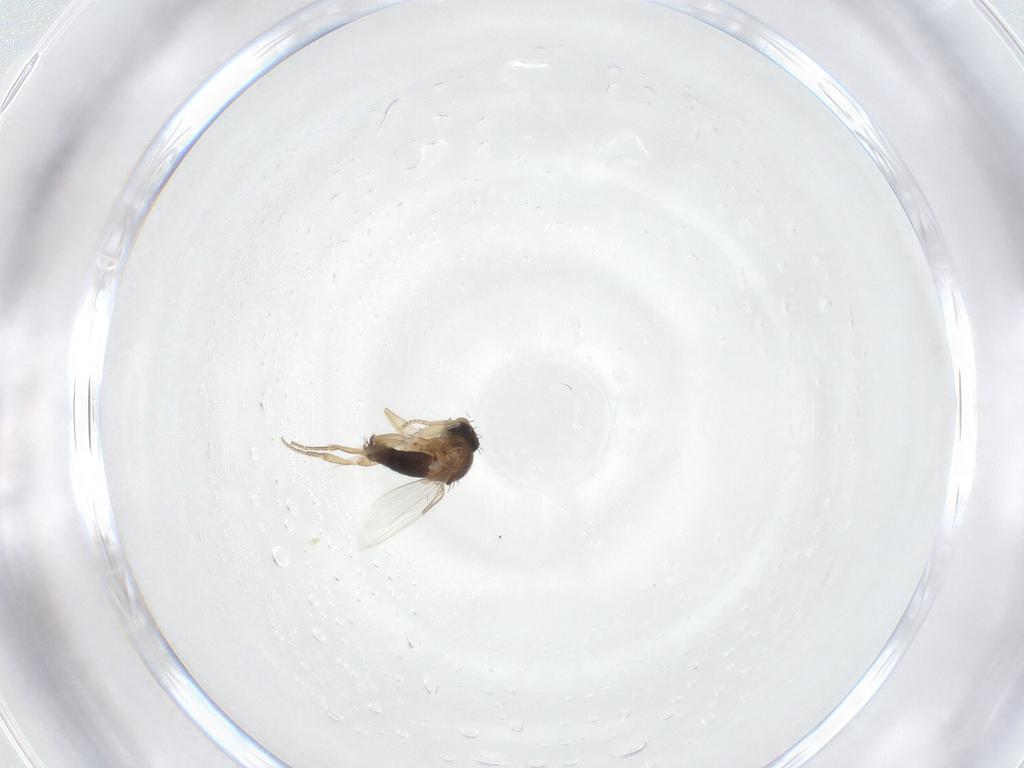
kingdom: Animalia
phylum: Arthropoda
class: Insecta
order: Diptera
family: Phoridae
